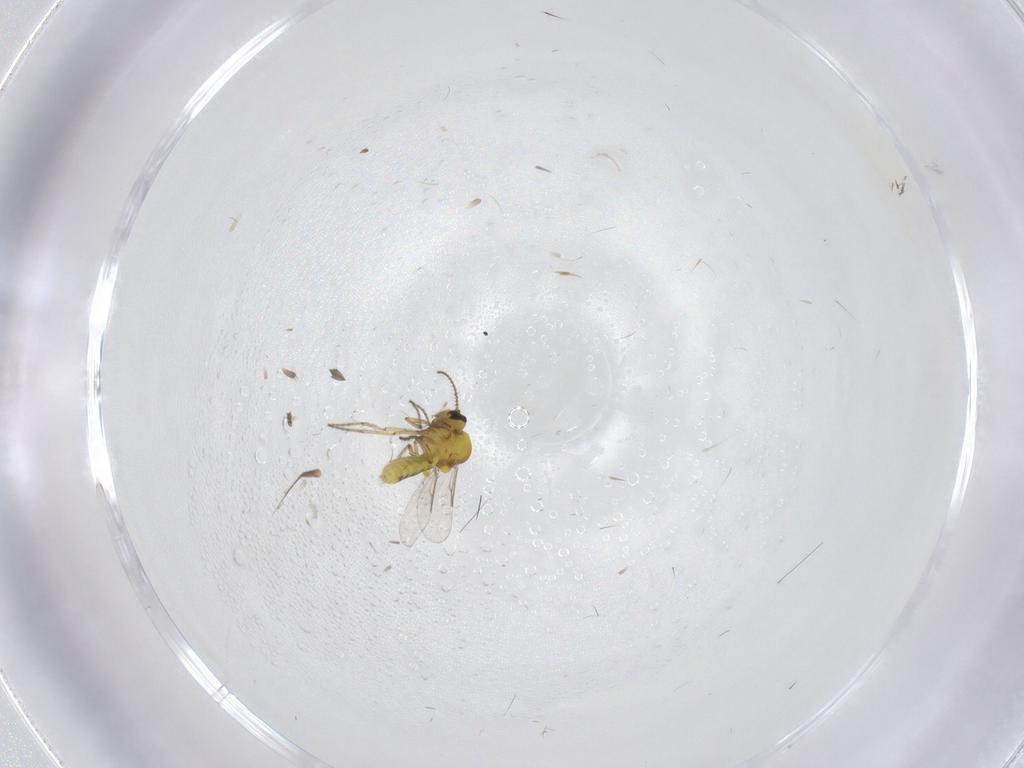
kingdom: Animalia
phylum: Arthropoda
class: Insecta
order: Diptera
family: Hybotidae
